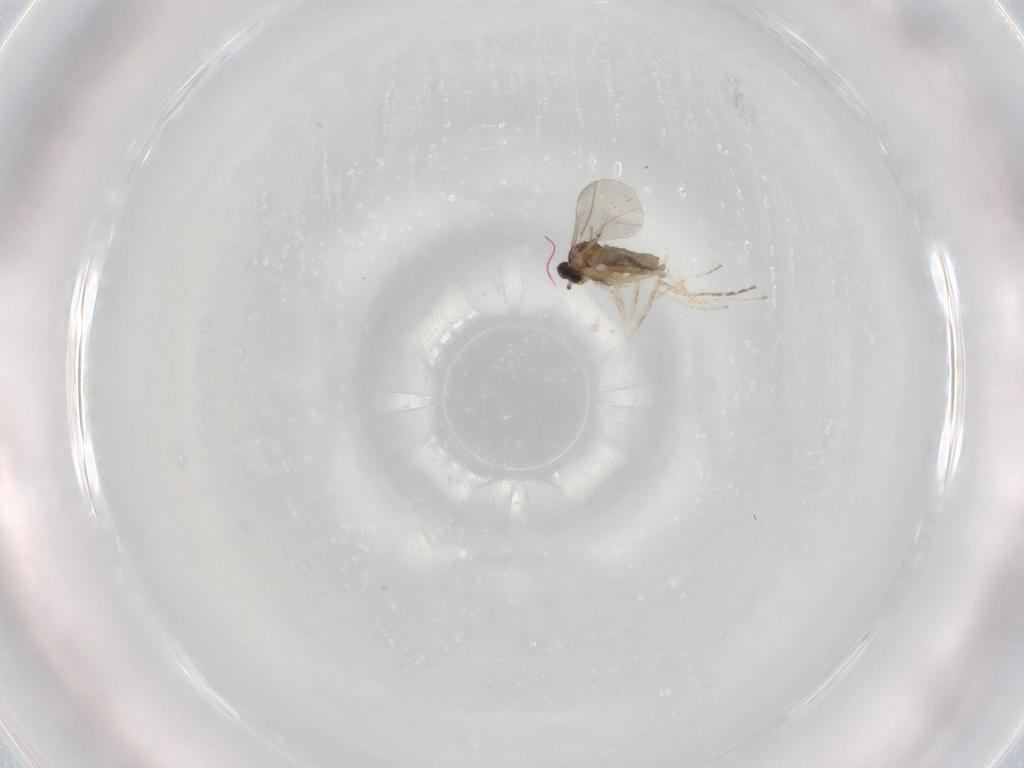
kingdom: Animalia
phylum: Arthropoda
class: Insecta
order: Diptera
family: Cecidomyiidae
